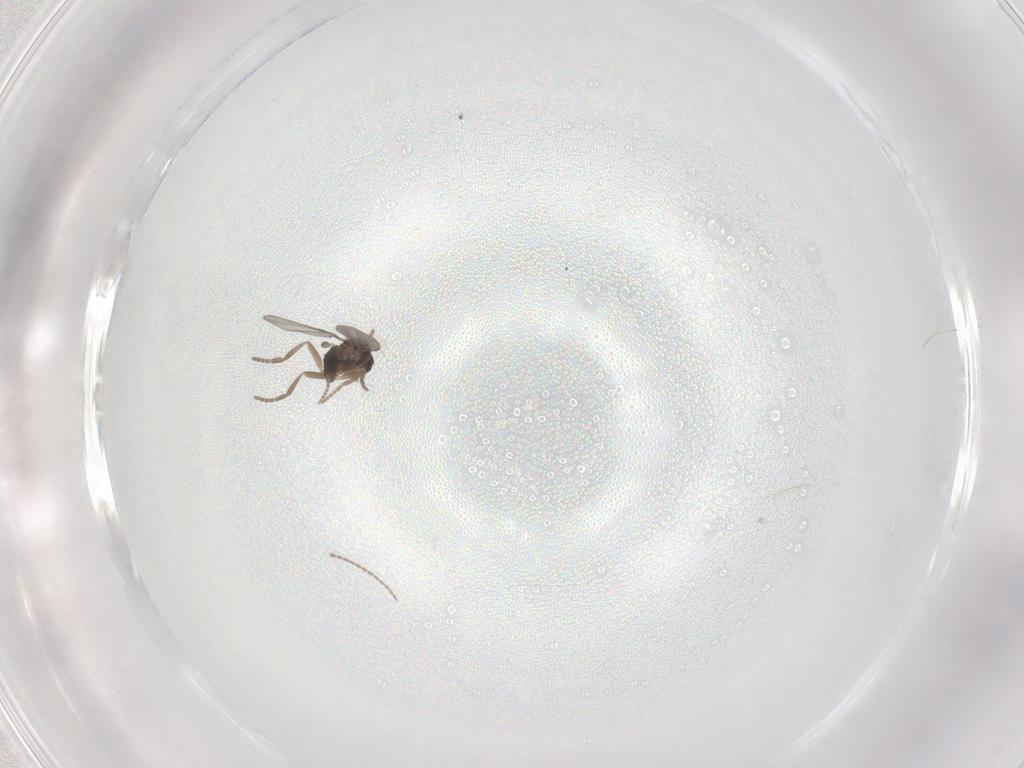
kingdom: Animalia
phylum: Arthropoda
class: Insecta
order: Diptera
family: Phoridae
